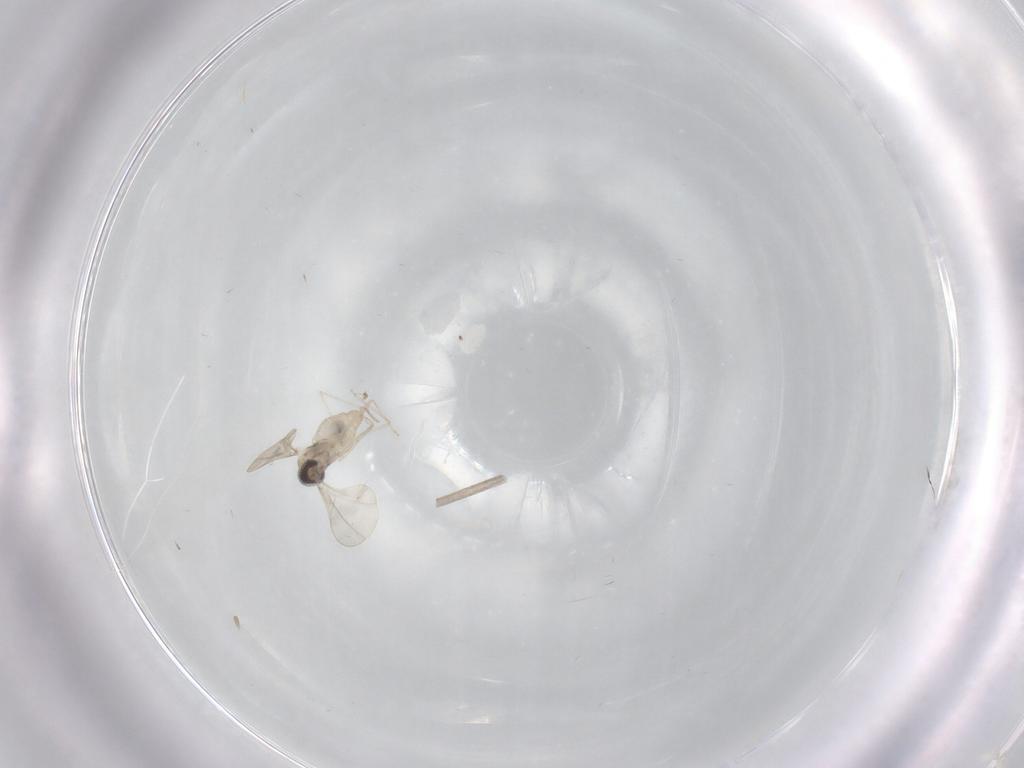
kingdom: Animalia
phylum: Arthropoda
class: Insecta
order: Diptera
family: Sciaridae
